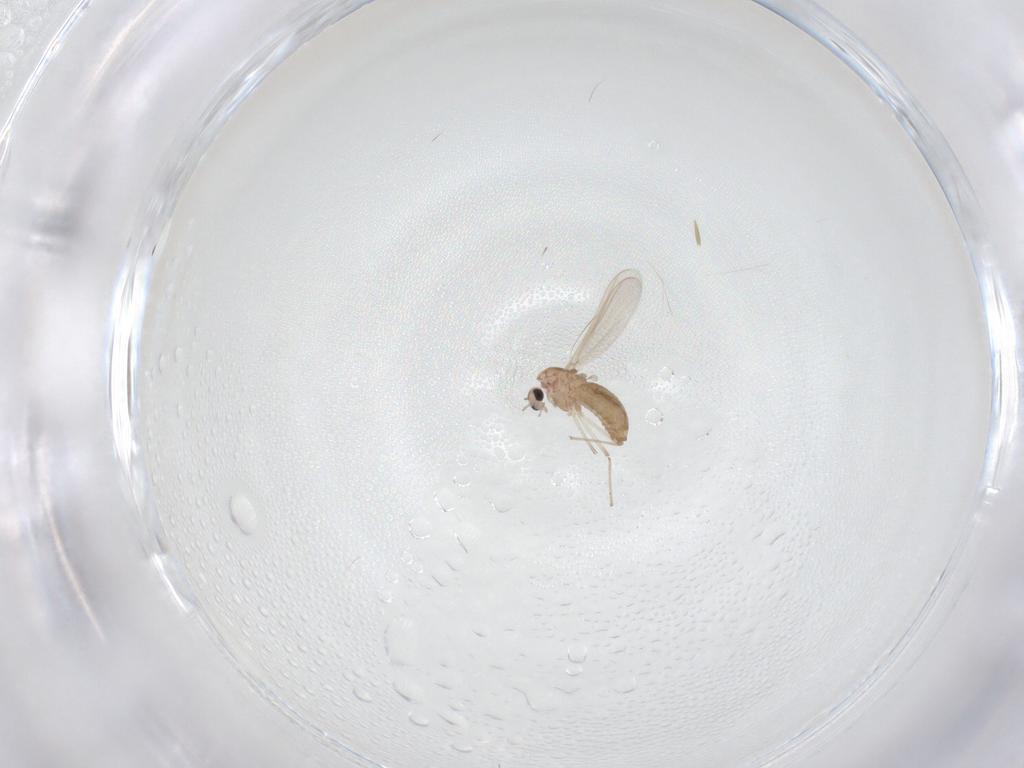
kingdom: Animalia
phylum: Arthropoda
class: Insecta
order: Diptera
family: Chironomidae
